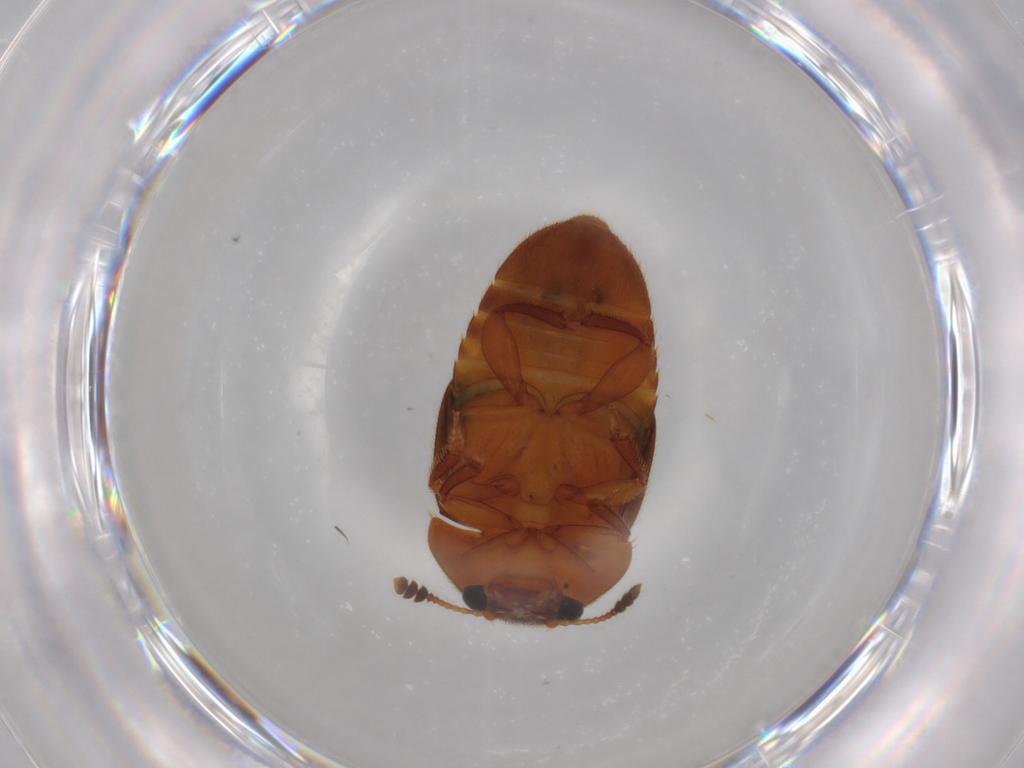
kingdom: Animalia
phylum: Arthropoda
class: Insecta
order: Coleoptera
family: Nitidulidae
